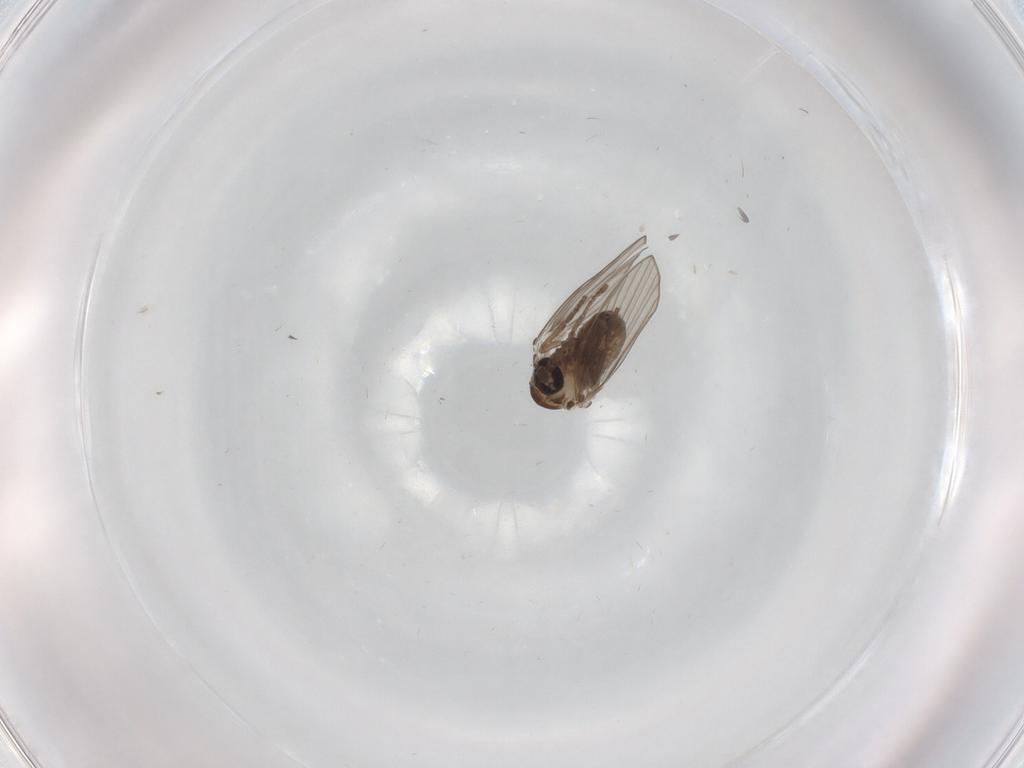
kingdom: Animalia
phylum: Arthropoda
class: Insecta
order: Diptera
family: Psychodidae
